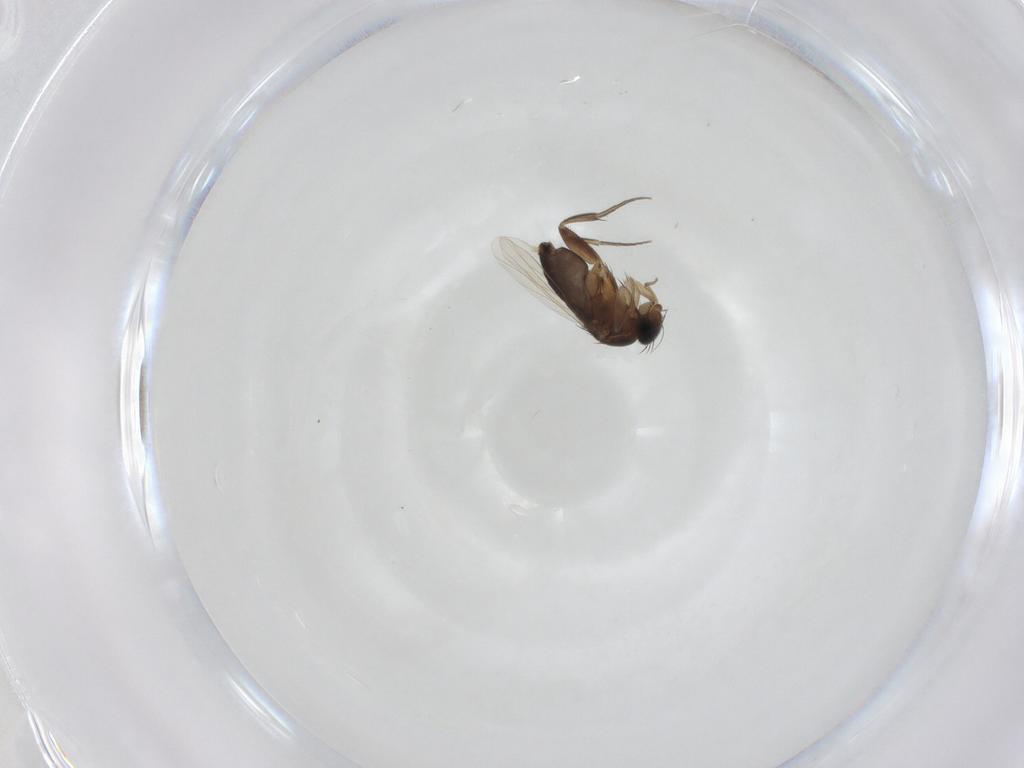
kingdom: Animalia
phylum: Arthropoda
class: Insecta
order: Diptera
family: Phoridae
